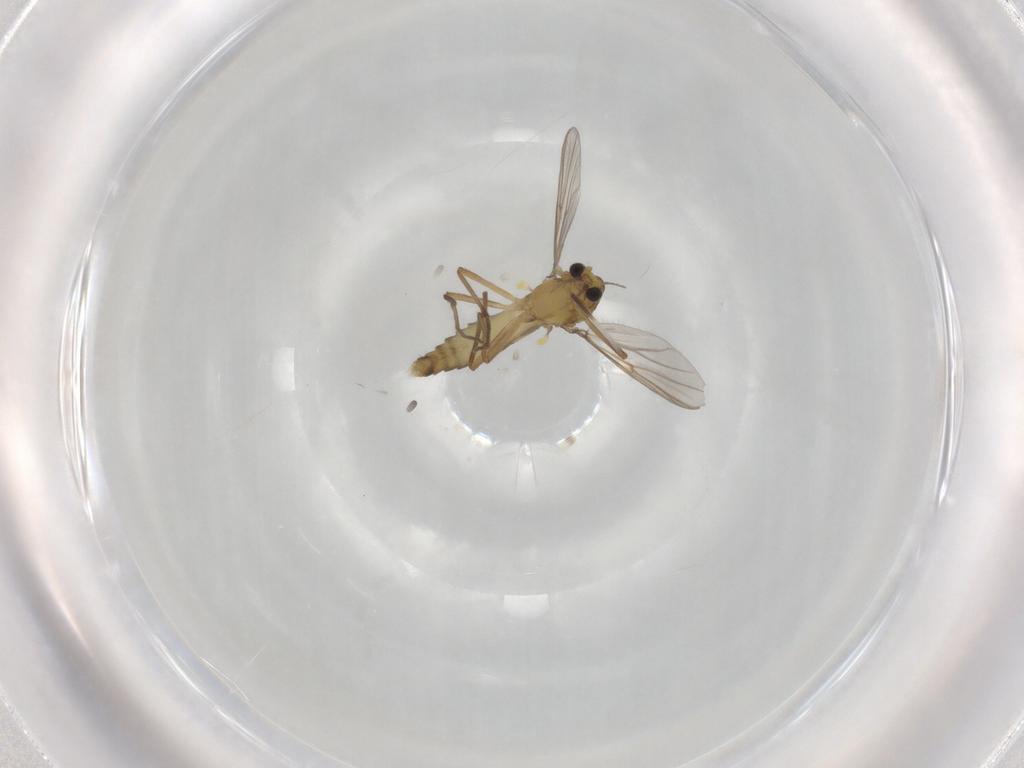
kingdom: Animalia
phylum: Arthropoda
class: Insecta
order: Diptera
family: Chironomidae
